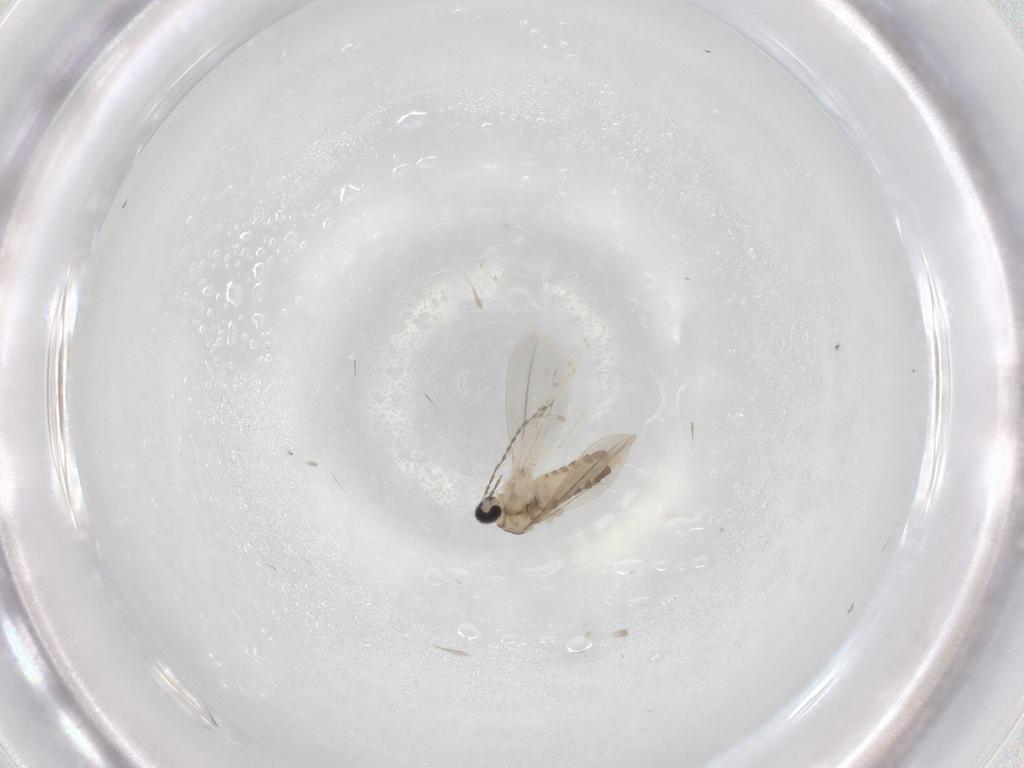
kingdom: Animalia
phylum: Arthropoda
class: Insecta
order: Diptera
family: Cecidomyiidae
